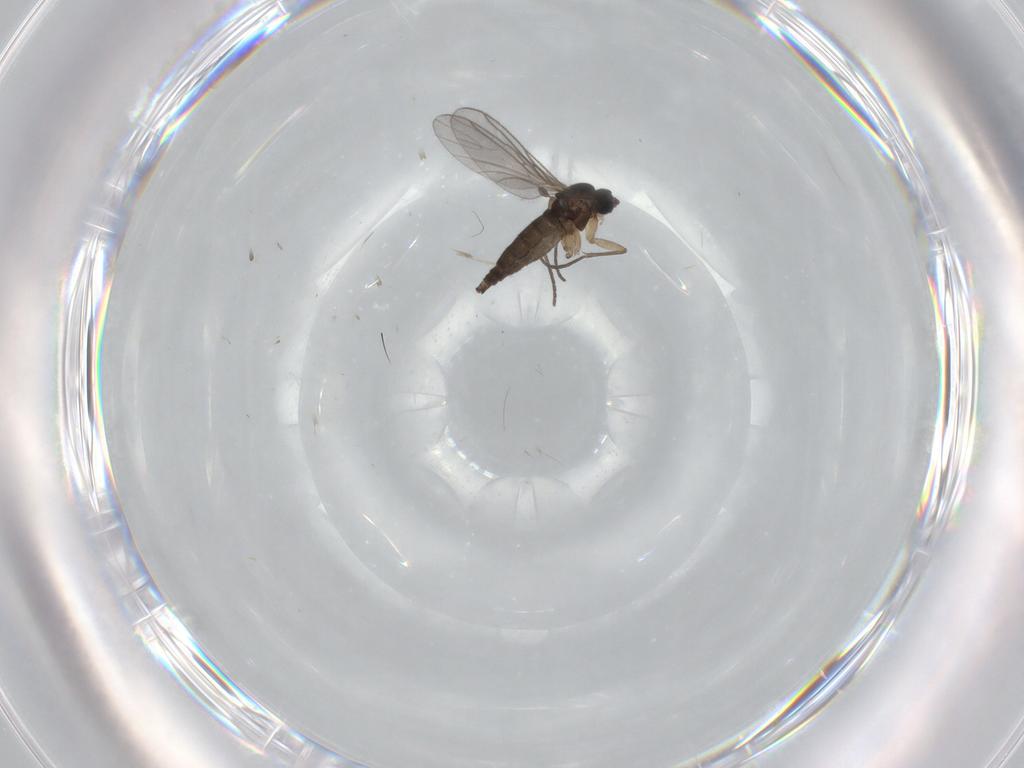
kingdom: Animalia
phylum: Arthropoda
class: Insecta
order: Diptera
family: Sciaridae
